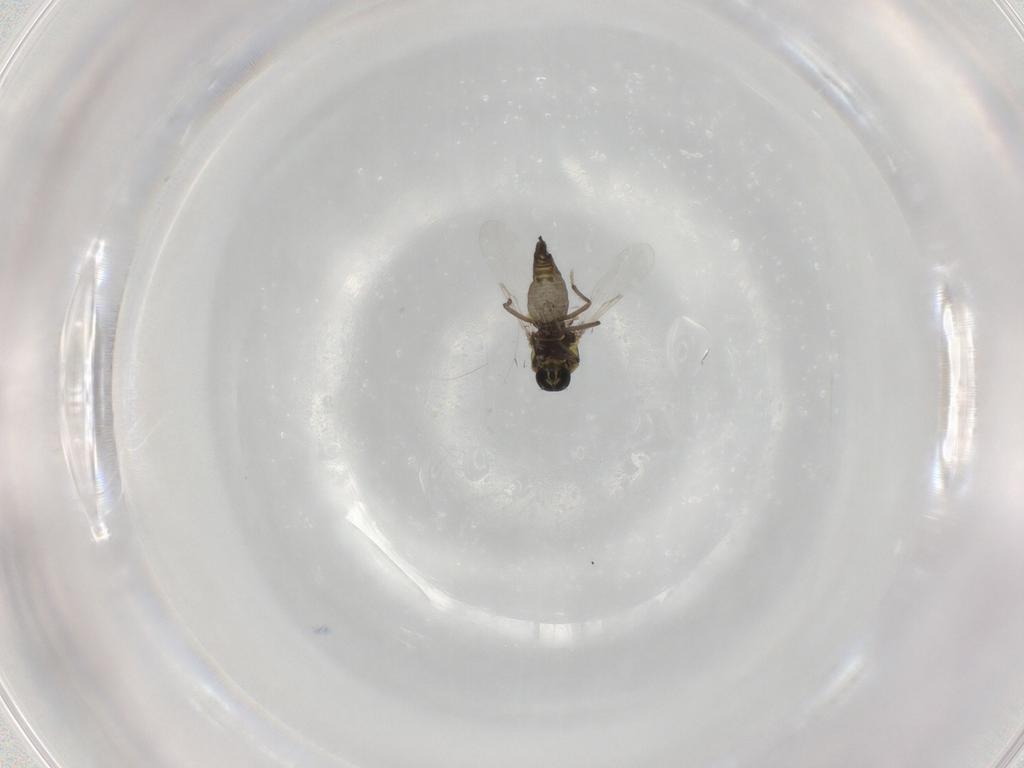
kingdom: Animalia
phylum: Arthropoda
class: Insecta
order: Diptera
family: Ceratopogonidae
